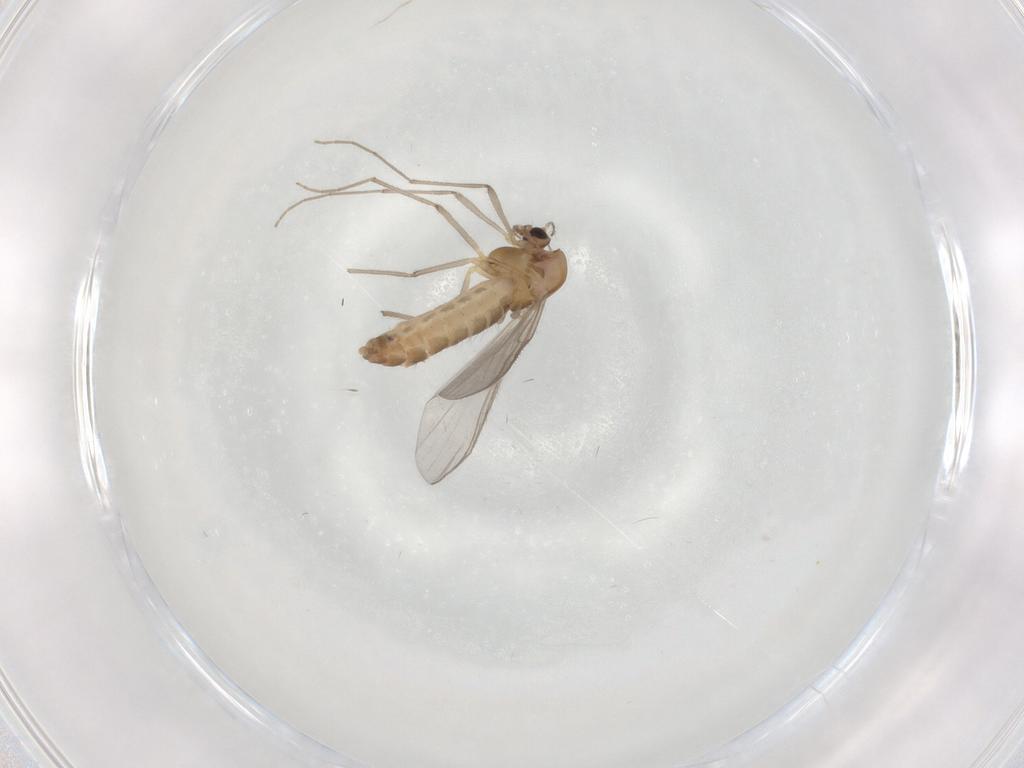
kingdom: Animalia
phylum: Arthropoda
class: Insecta
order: Diptera
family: Chironomidae
